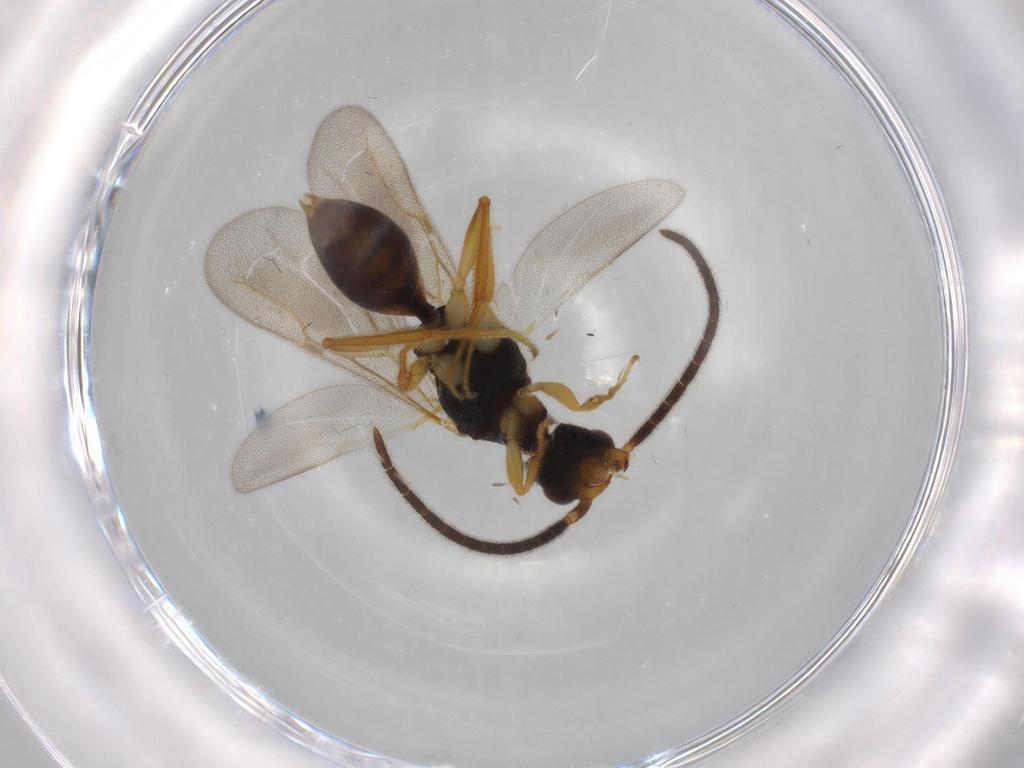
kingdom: Animalia
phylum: Arthropoda
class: Insecta
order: Hymenoptera
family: Bethylidae
